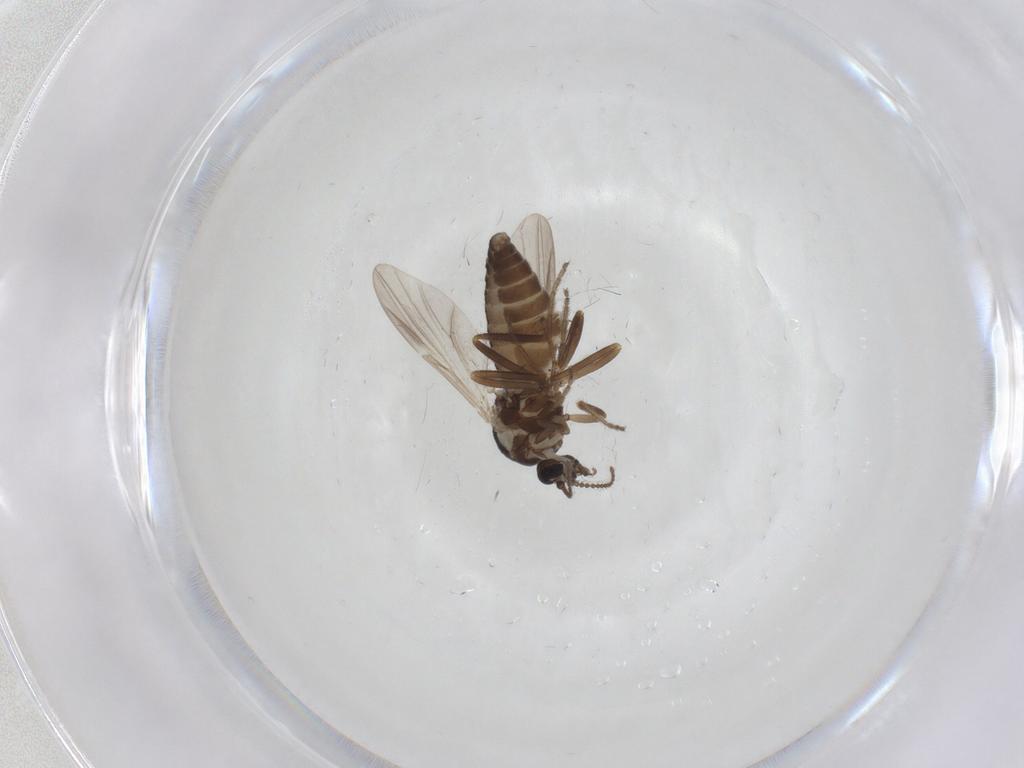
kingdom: Animalia
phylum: Arthropoda
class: Insecta
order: Diptera
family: Ceratopogonidae
